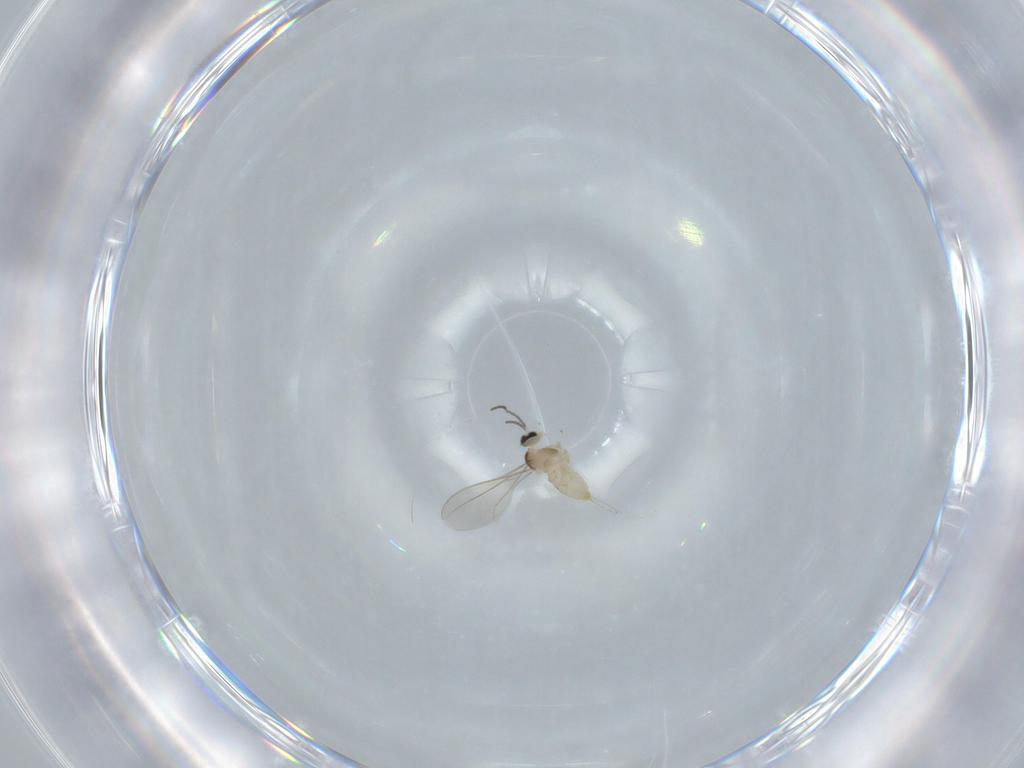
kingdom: Animalia
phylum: Arthropoda
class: Insecta
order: Diptera
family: Cecidomyiidae
